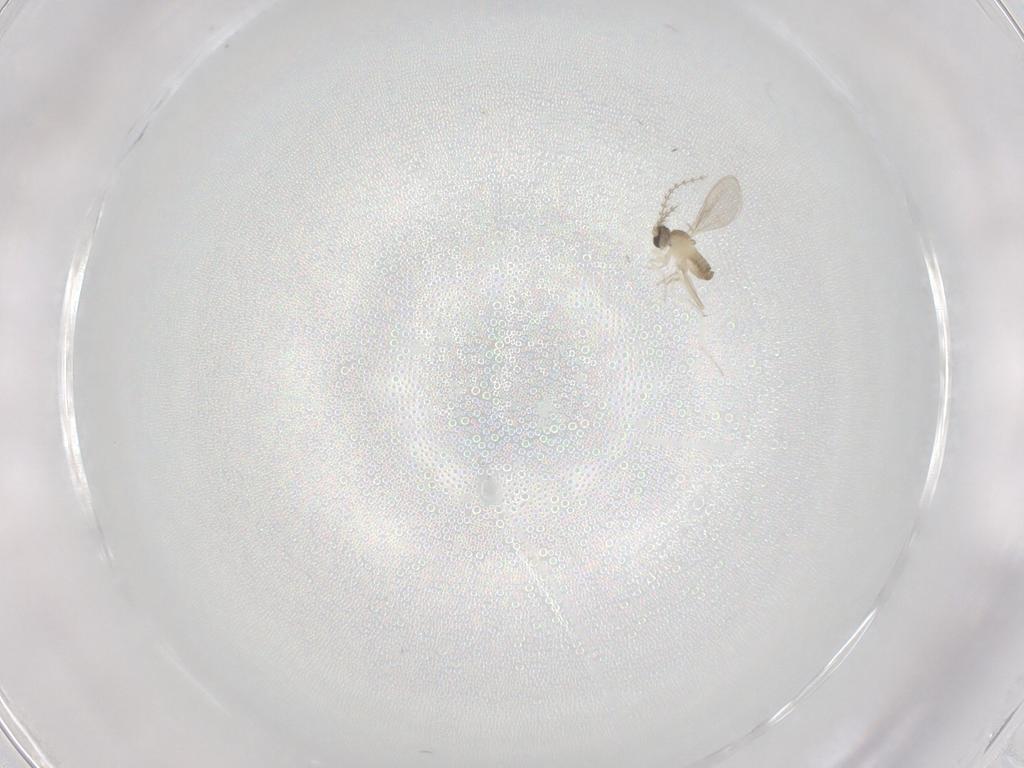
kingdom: Animalia
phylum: Arthropoda
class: Insecta
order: Diptera
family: Cecidomyiidae
